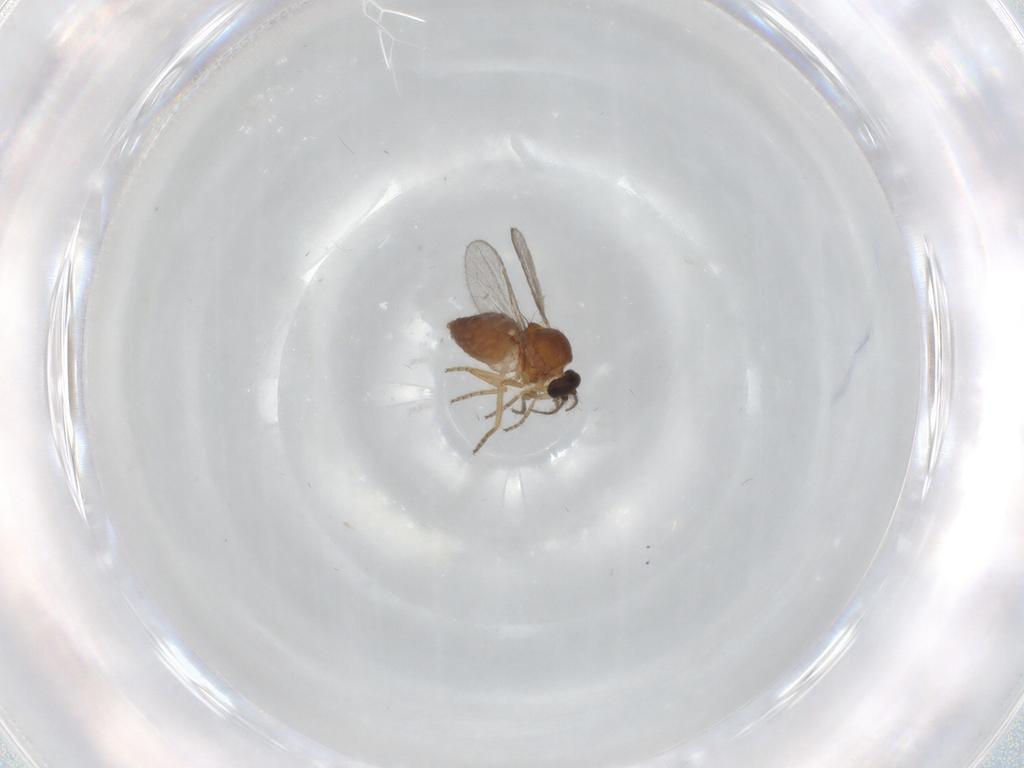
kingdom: Animalia
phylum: Arthropoda
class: Insecta
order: Diptera
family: Ceratopogonidae
